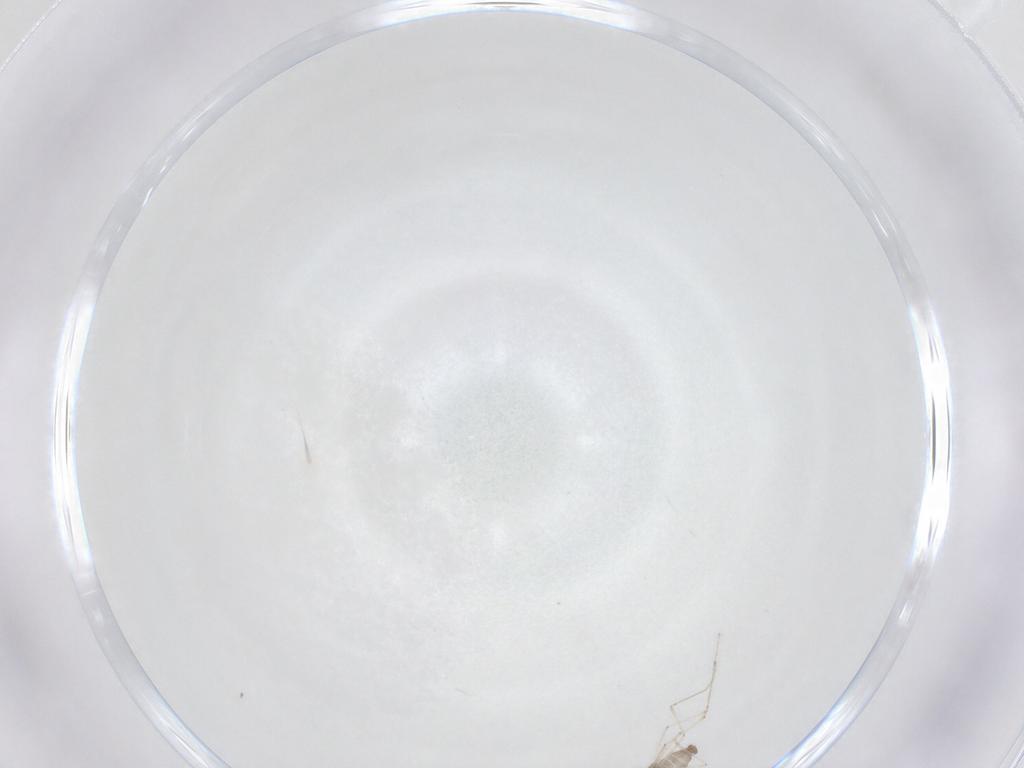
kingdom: Animalia
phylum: Arthropoda
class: Insecta
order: Diptera
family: Cecidomyiidae
